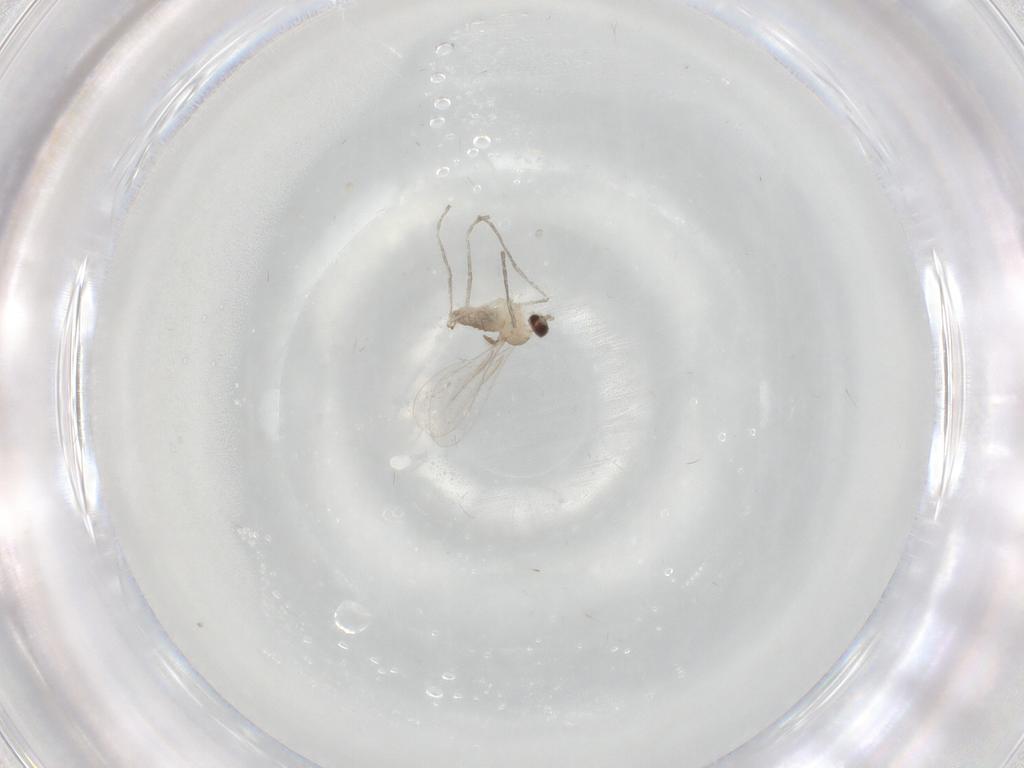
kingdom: Animalia
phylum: Arthropoda
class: Insecta
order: Diptera
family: Cecidomyiidae
